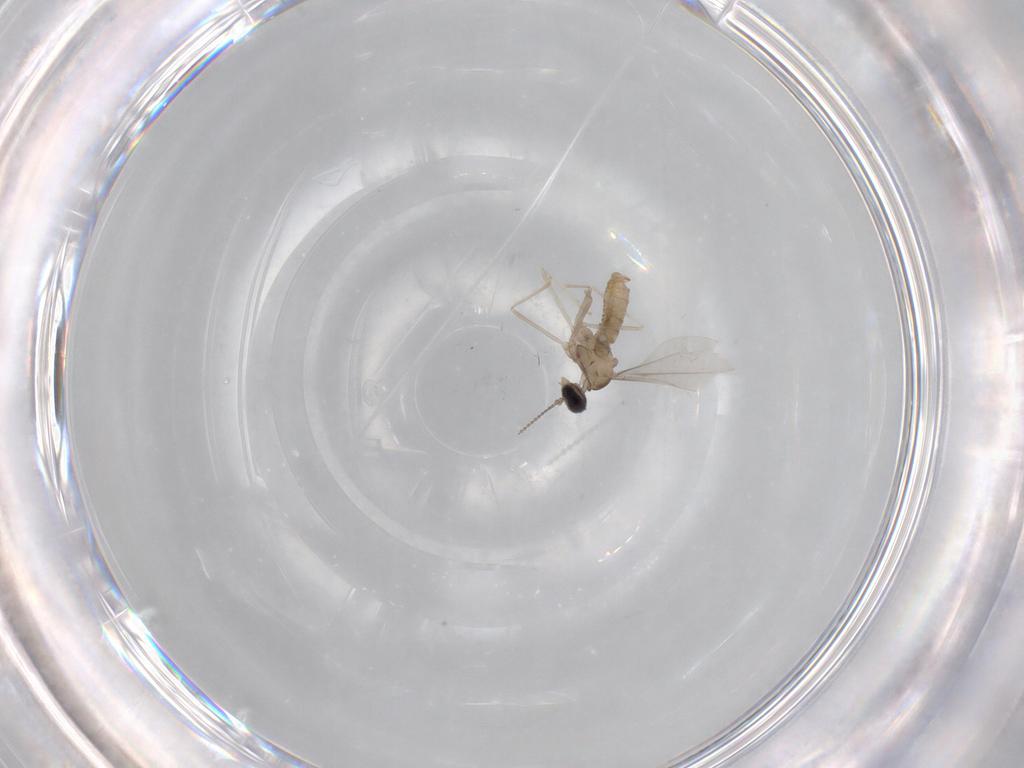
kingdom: Animalia
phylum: Arthropoda
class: Insecta
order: Diptera
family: Cecidomyiidae
